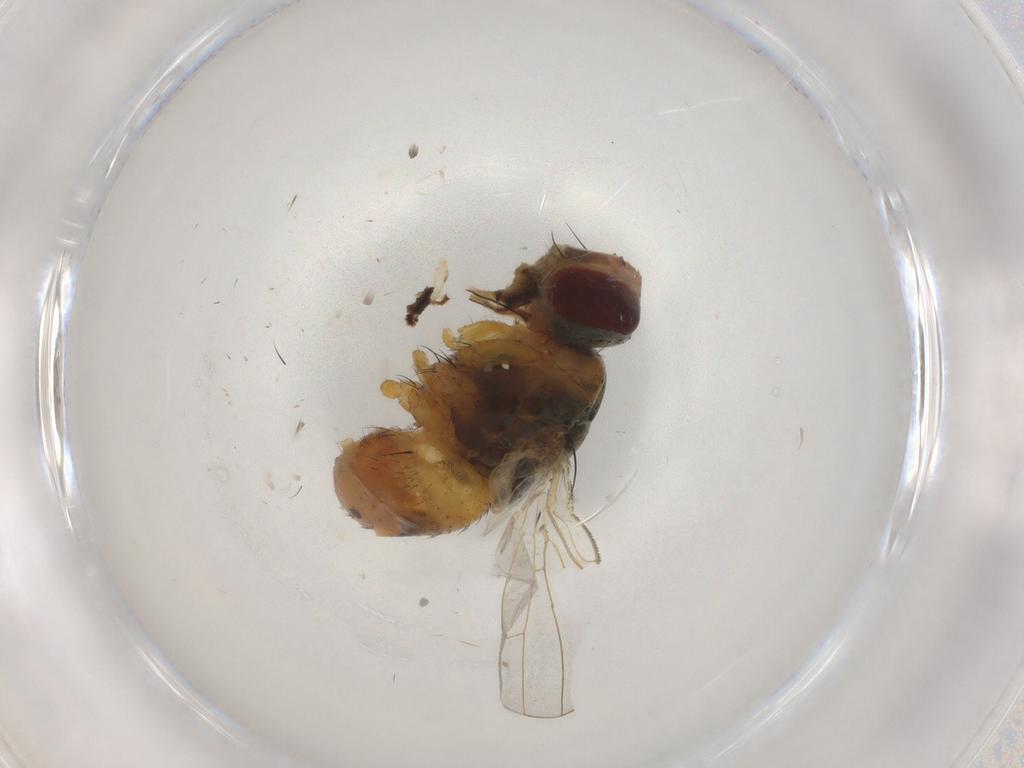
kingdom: Animalia
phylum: Arthropoda
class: Insecta
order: Diptera
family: Muscidae
